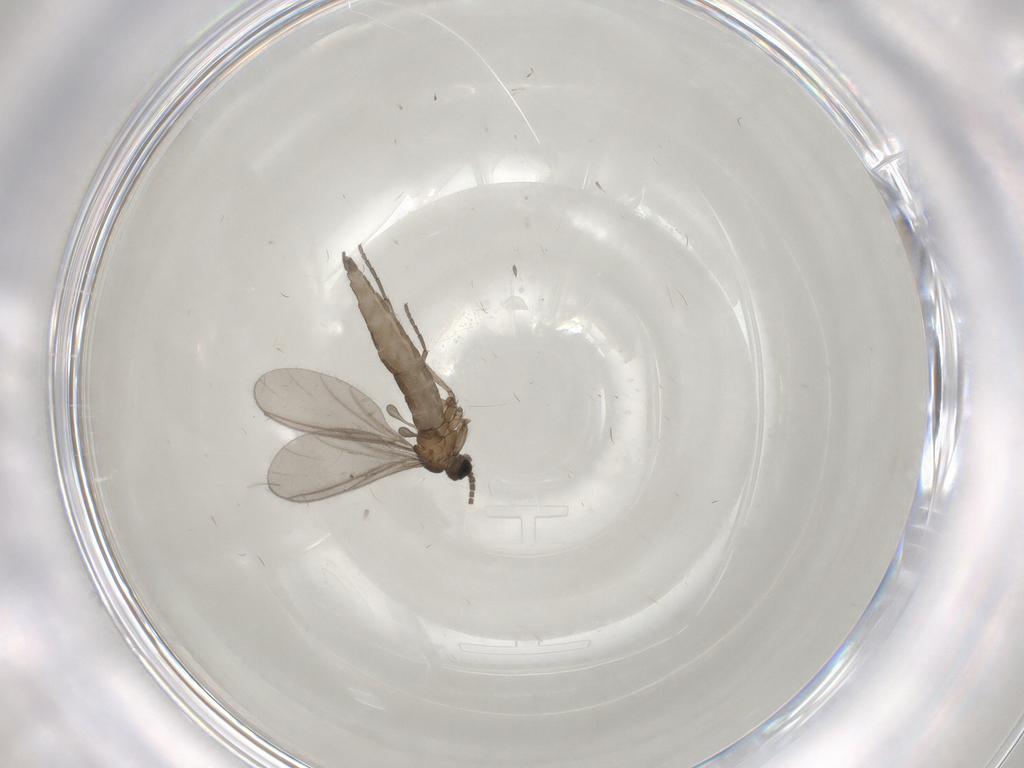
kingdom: Animalia
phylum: Arthropoda
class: Insecta
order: Diptera
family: Sciaridae
